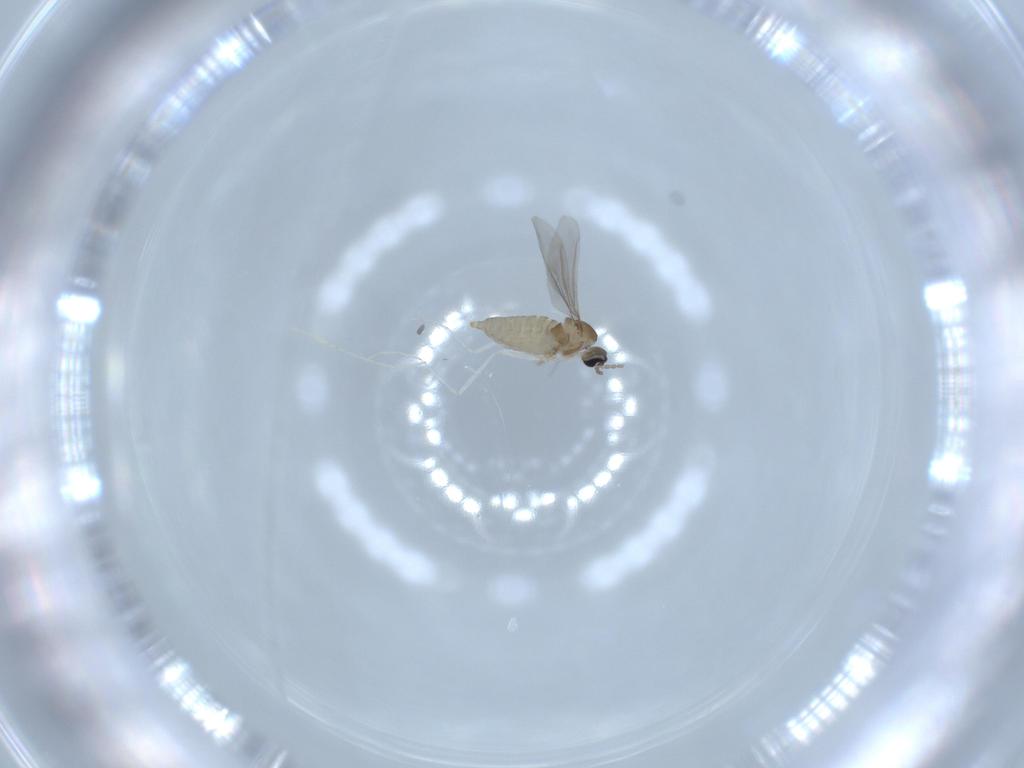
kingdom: Animalia
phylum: Arthropoda
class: Insecta
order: Diptera
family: Cecidomyiidae
